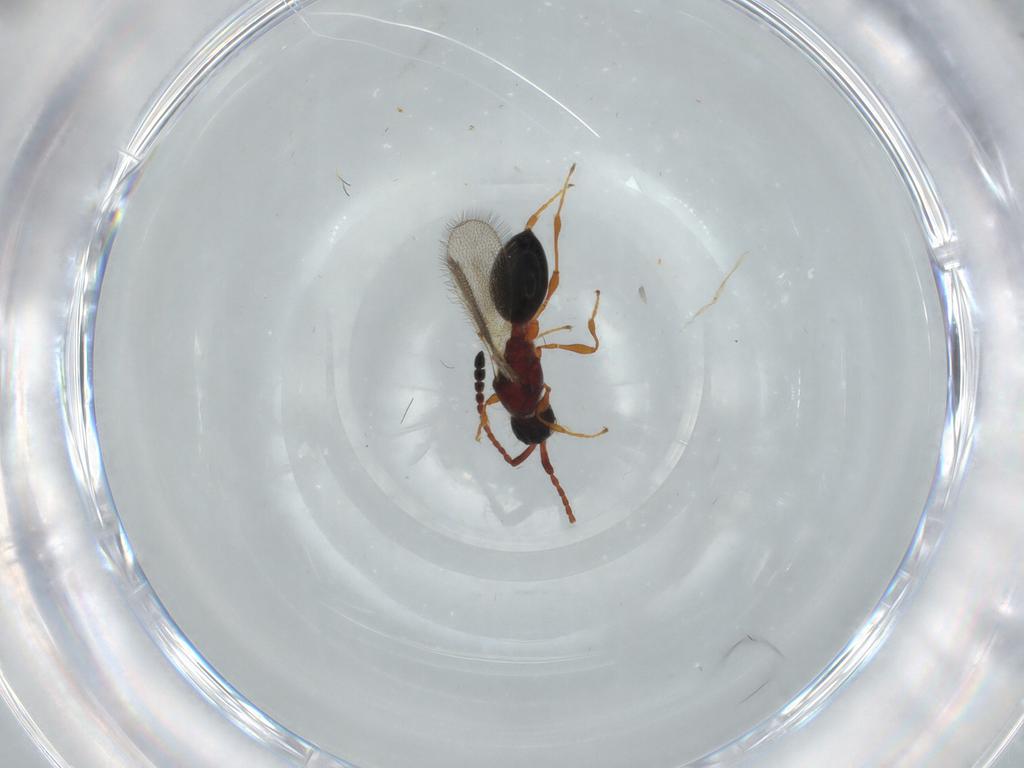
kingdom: Animalia
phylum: Arthropoda
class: Insecta
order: Hymenoptera
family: Diapriidae
